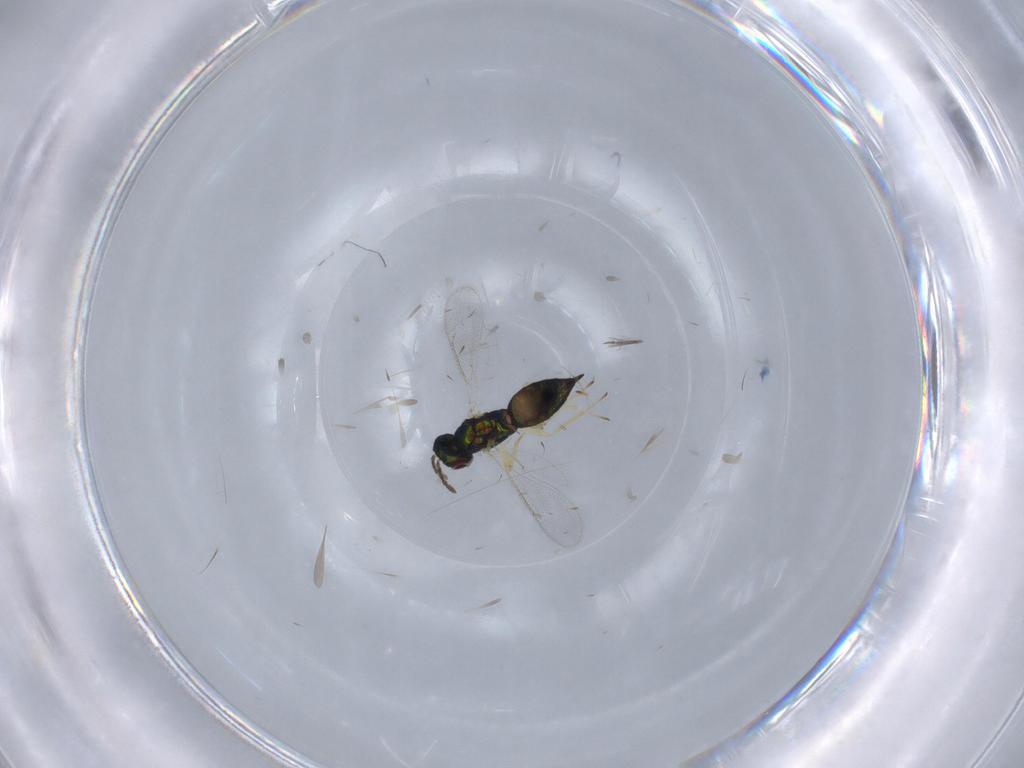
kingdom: Animalia
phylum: Arthropoda
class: Insecta
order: Hymenoptera
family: Eulophidae
